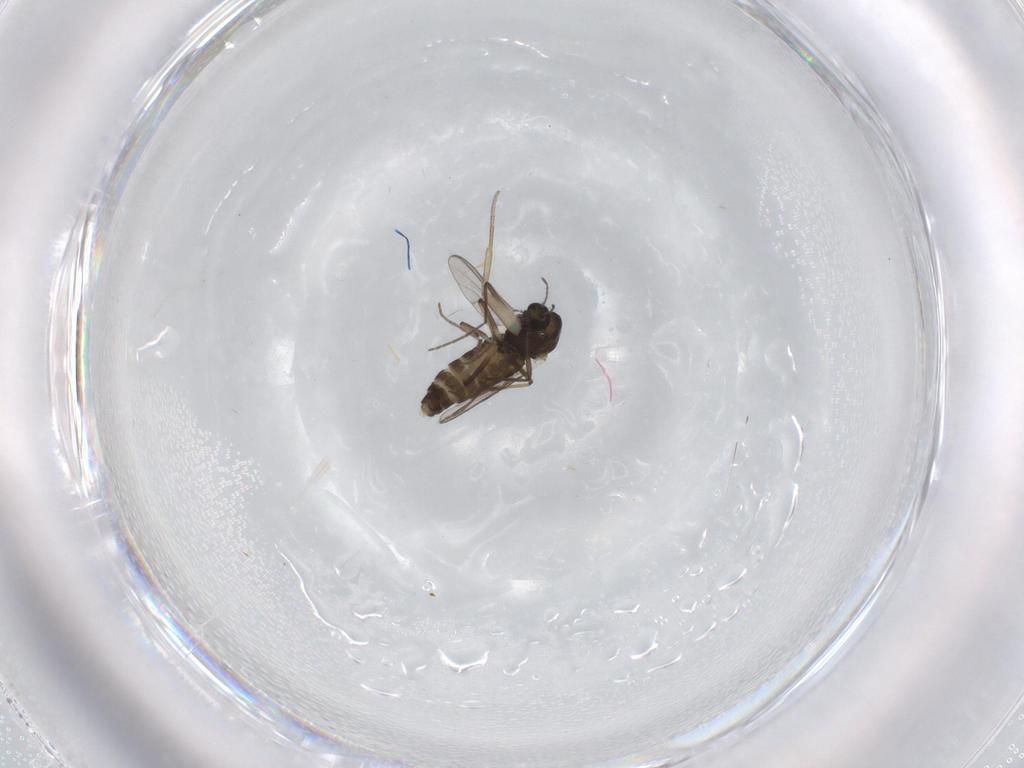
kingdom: Animalia
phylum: Arthropoda
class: Insecta
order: Diptera
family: Chironomidae
